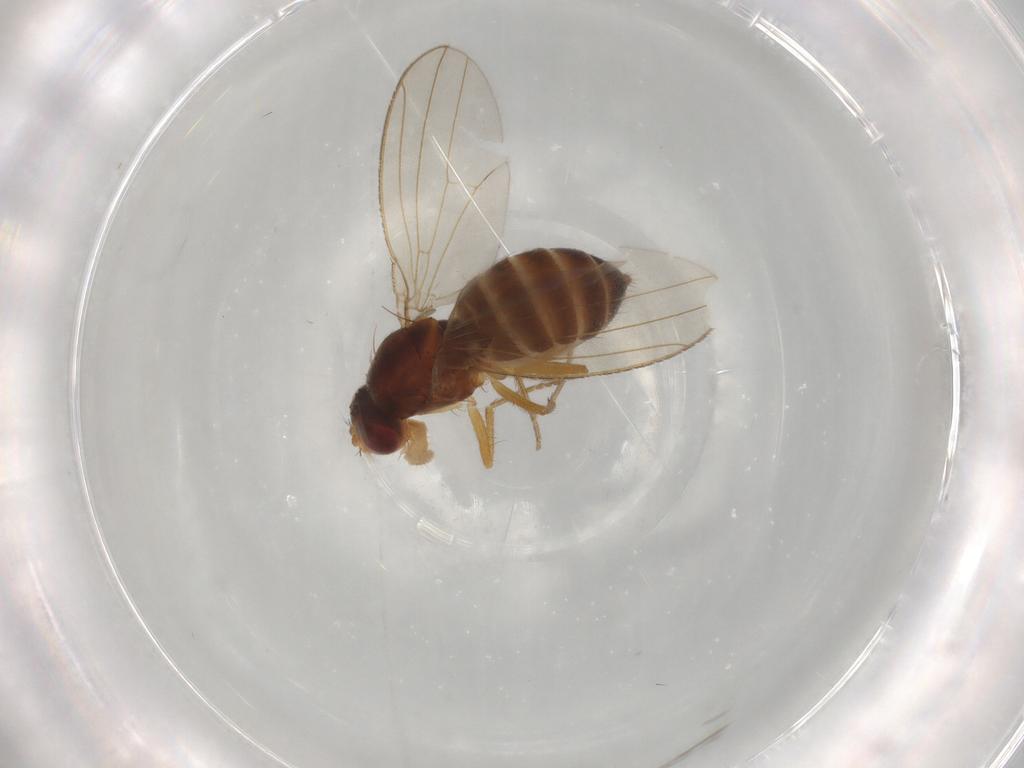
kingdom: Animalia
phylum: Arthropoda
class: Insecta
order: Diptera
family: Drosophilidae
